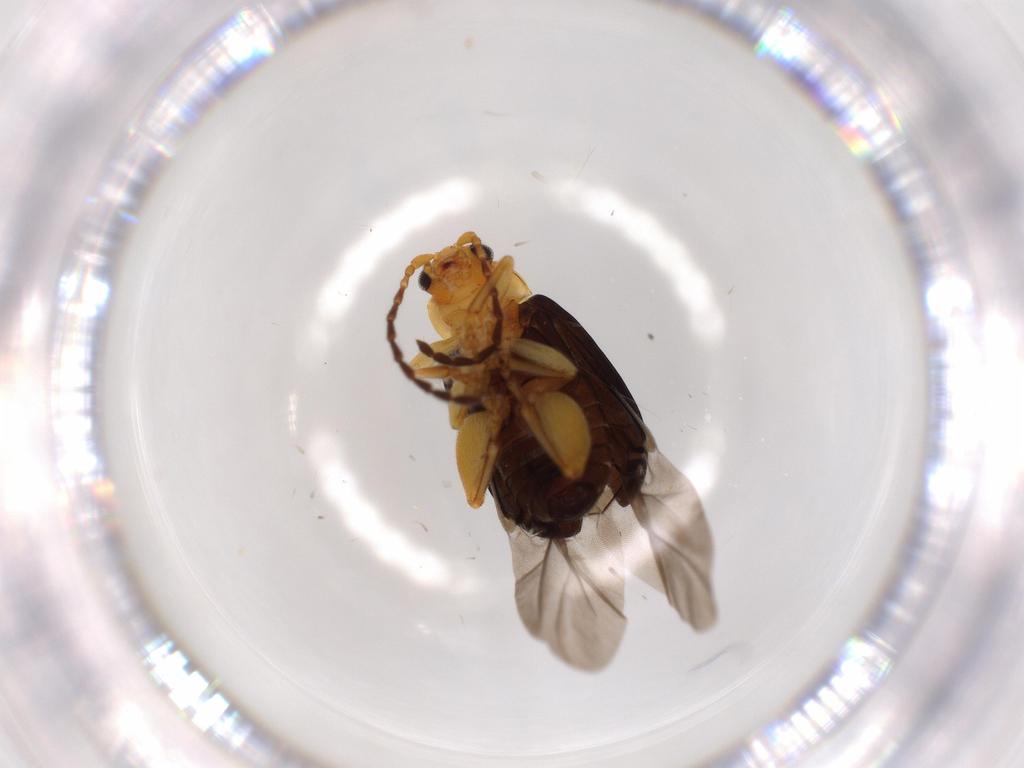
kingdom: Animalia
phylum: Arthropoda
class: Insecta
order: Coleoptera
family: Chrysomelidae
